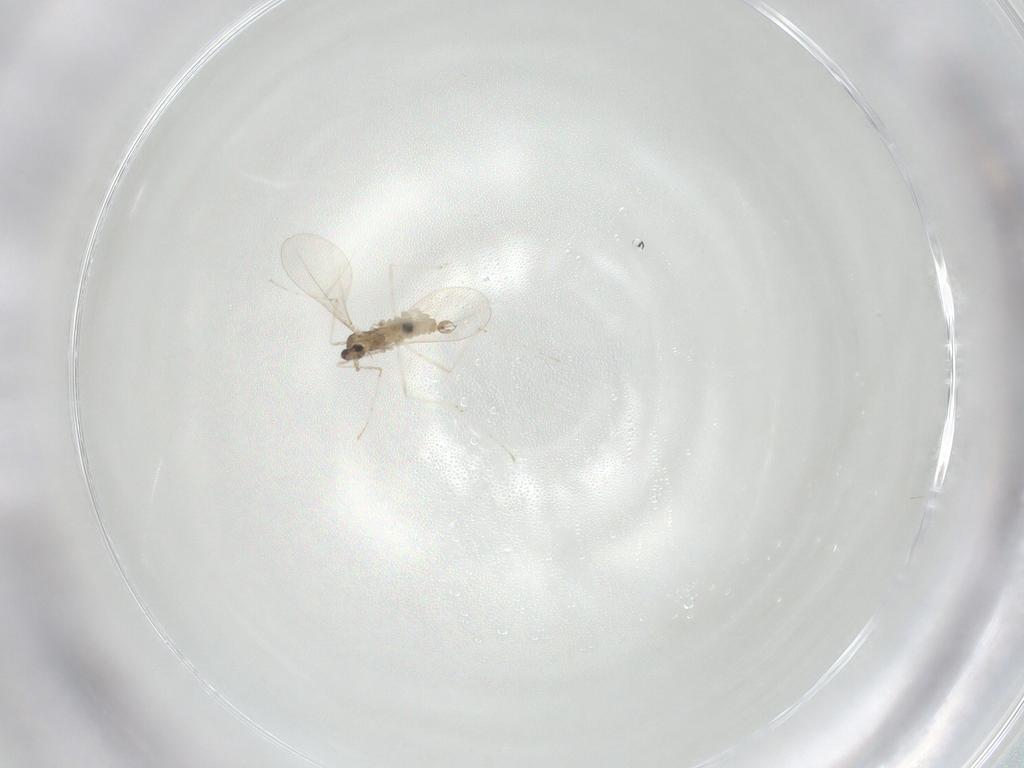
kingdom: Animalia
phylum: Arthropoda
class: Insecta
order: Diptera
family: Cecidomyiidae
